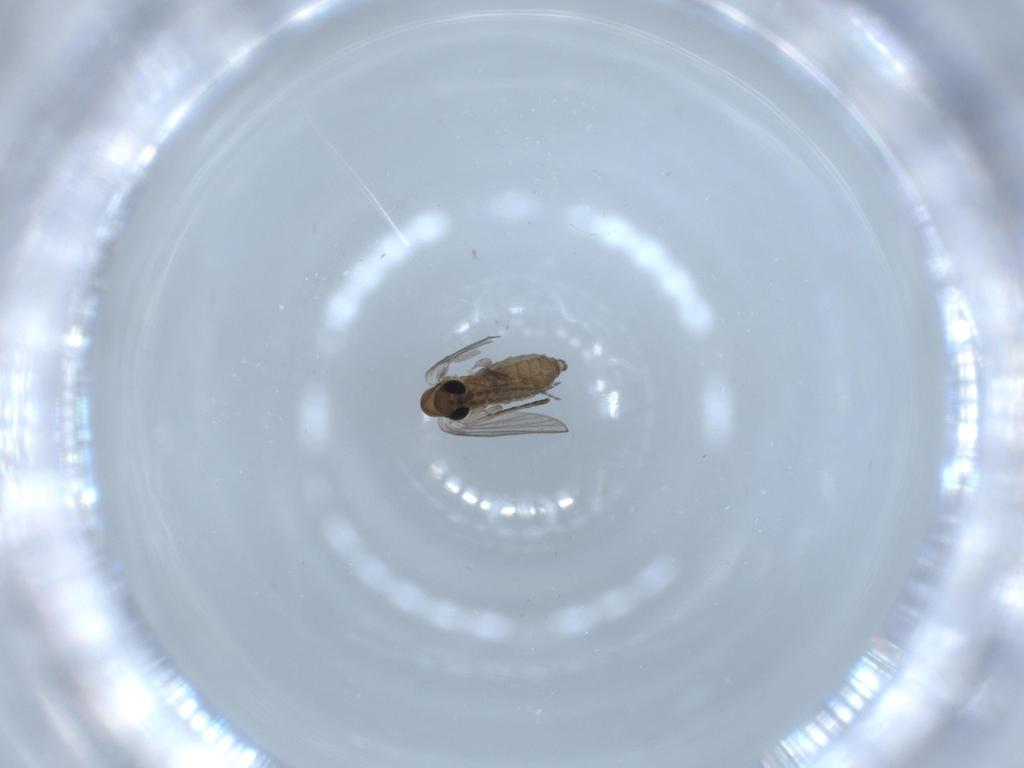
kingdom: Animalia
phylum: Arthropoda
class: Insecta
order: Diptera
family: Psychodidae
